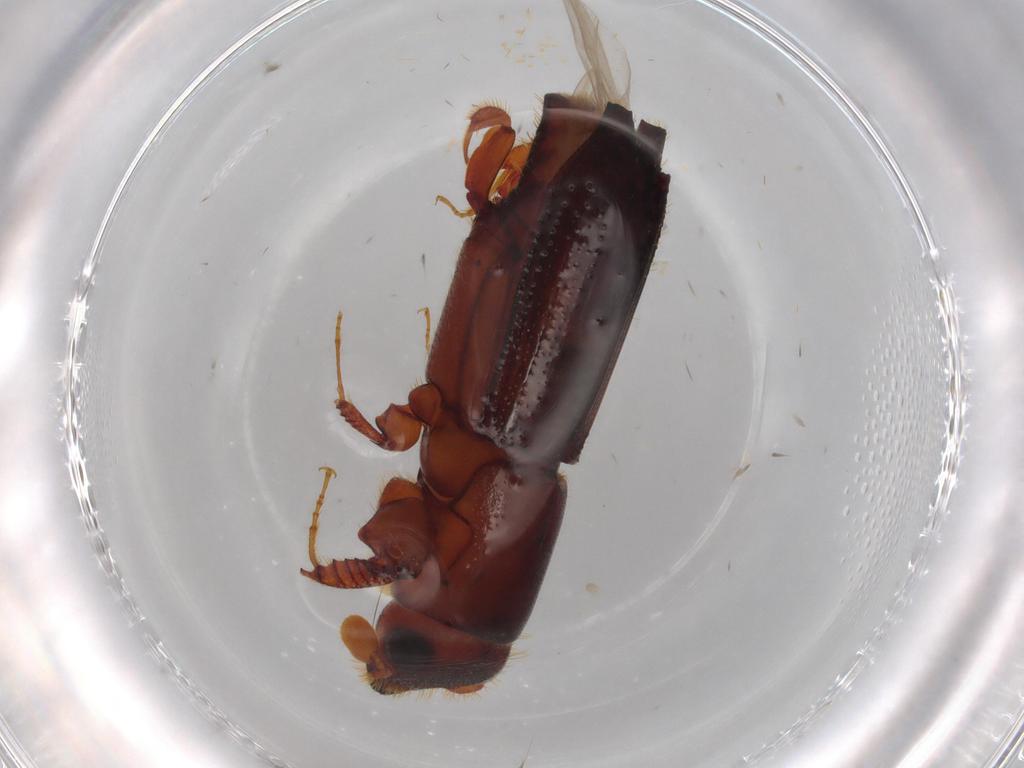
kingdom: Animalia
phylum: Arthropoda
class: Insecta
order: Coleoptera
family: Curculionidae
